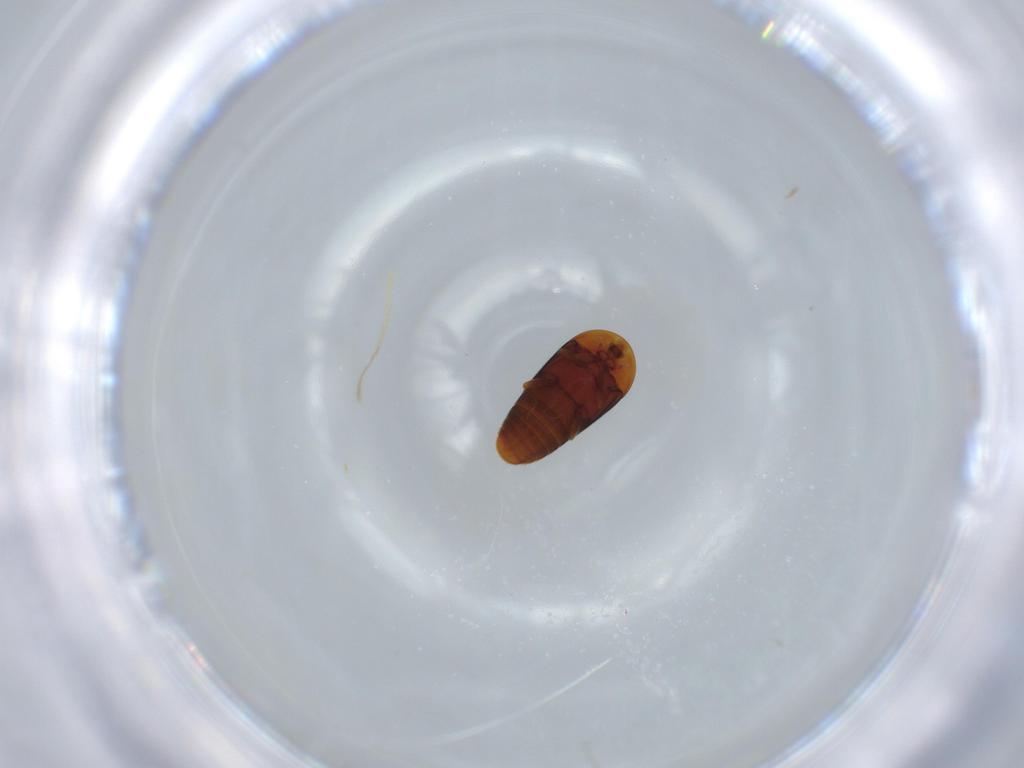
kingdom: Animalia
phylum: Arthropoda
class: Insecta
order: Coleoptera
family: Corylophidae
